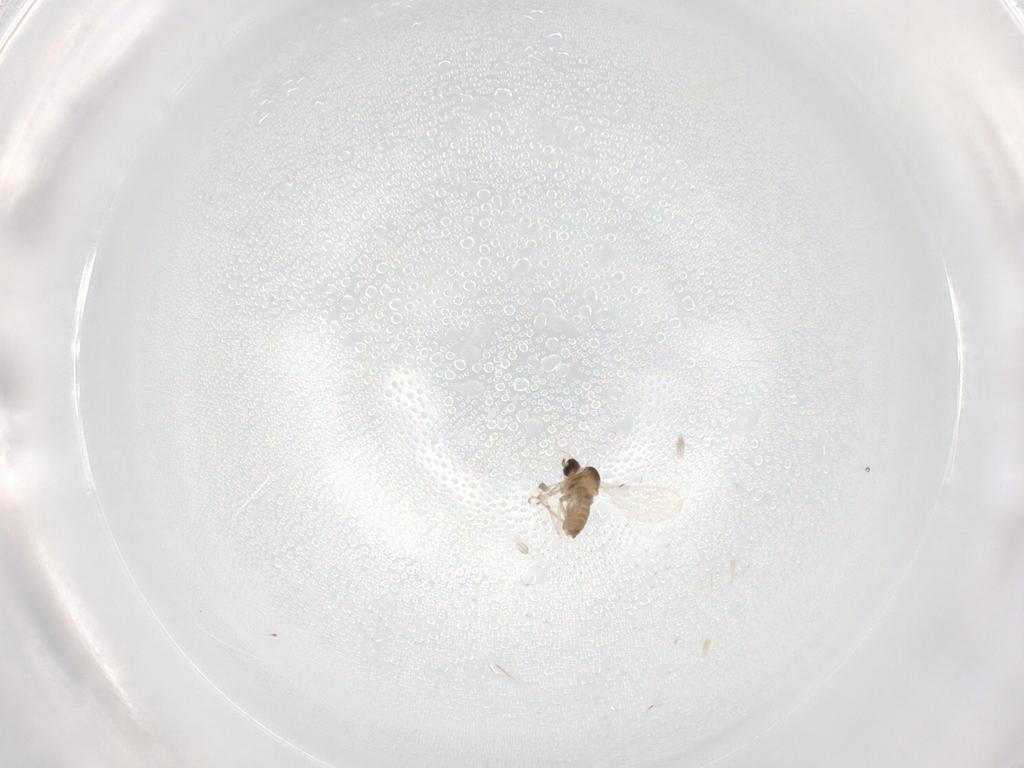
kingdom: Animalia
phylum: Arthropoda
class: Insecta
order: Diptera
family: Cecidomyiidae
